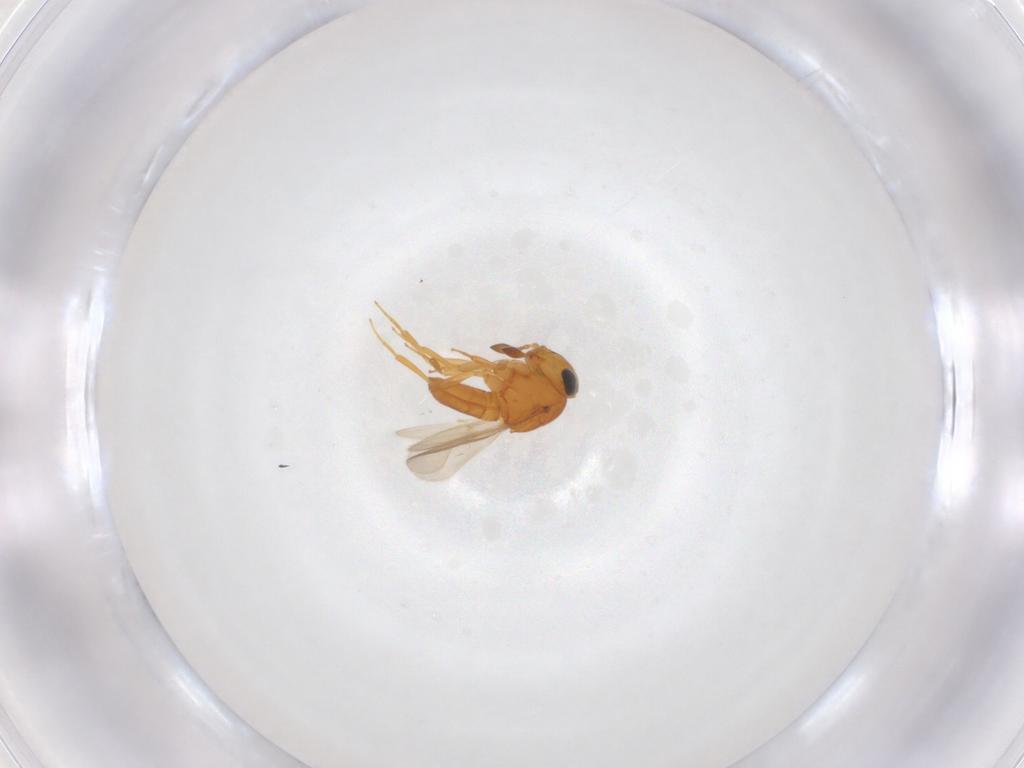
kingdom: Animalia
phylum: Arthropoda
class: Insecta
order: Hymenoptera
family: Scelionidae
